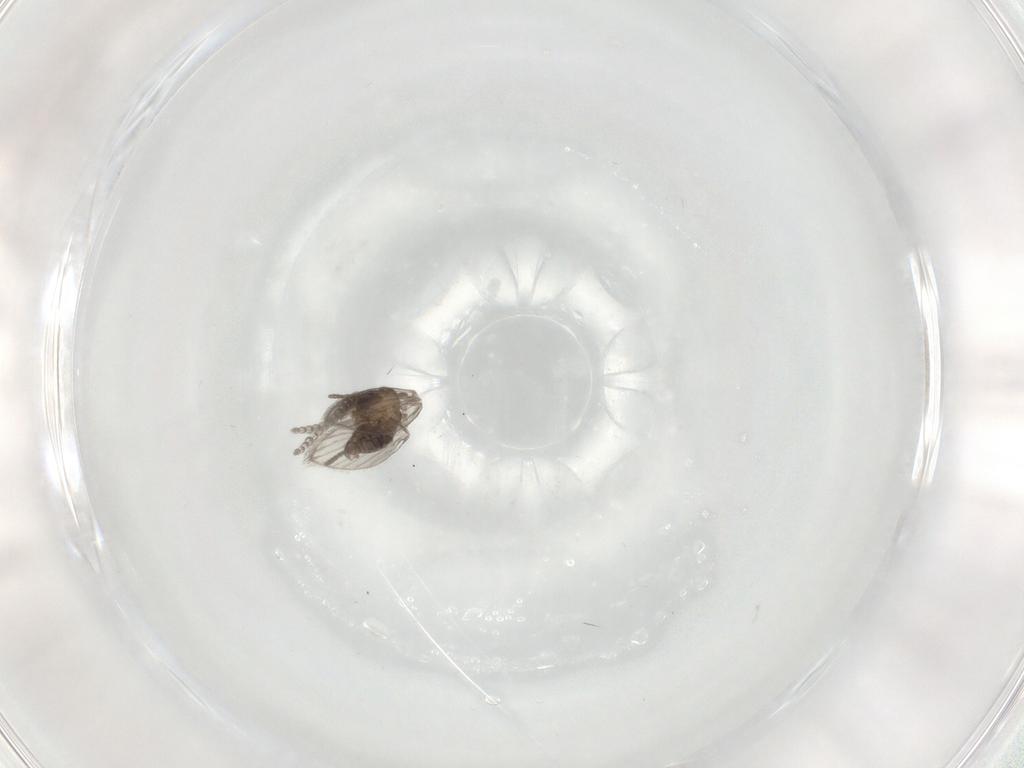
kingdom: Animalia
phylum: Arthropoda
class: Insecta
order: Diptera
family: Psychodidae
